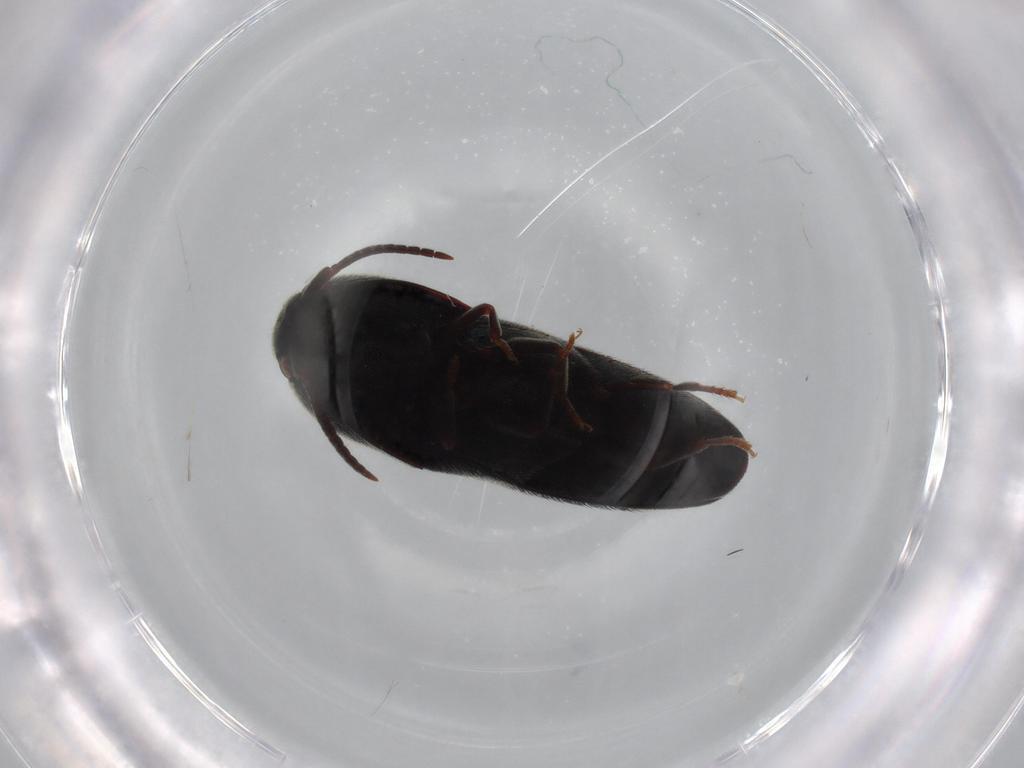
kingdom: Animalia
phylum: Arthropoda
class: Insecta
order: Coleoptera
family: Eucnemidae
